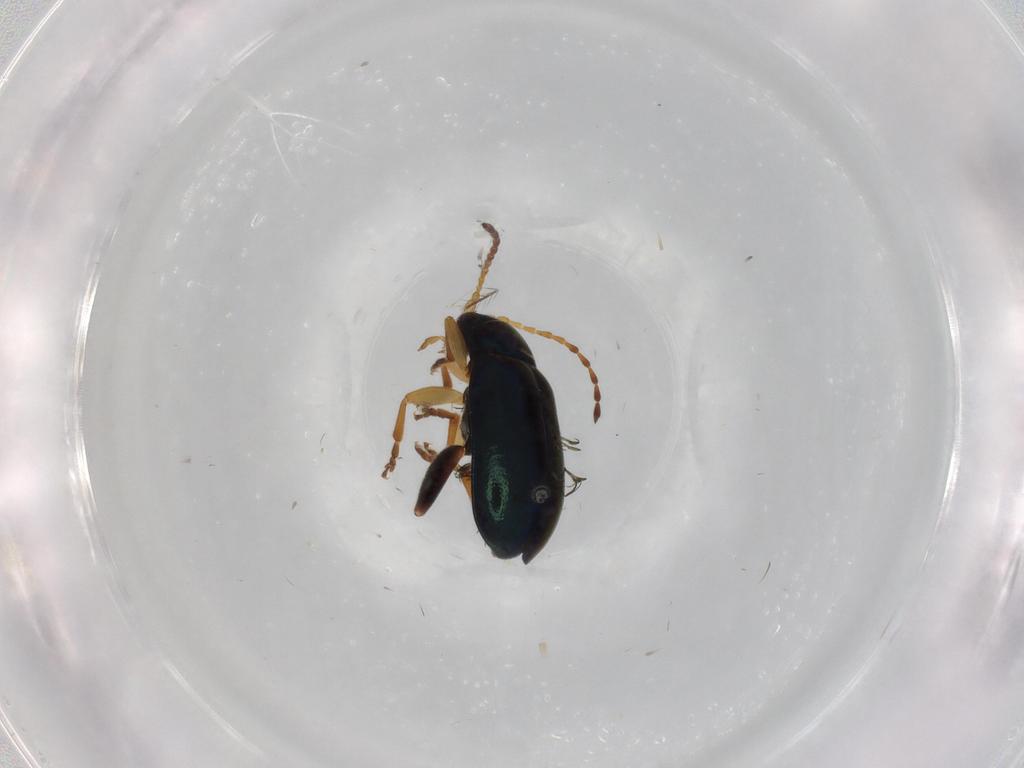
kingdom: Animalia
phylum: Arthropoda
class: Insecta
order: Coleoptera
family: Chrysomelidae
